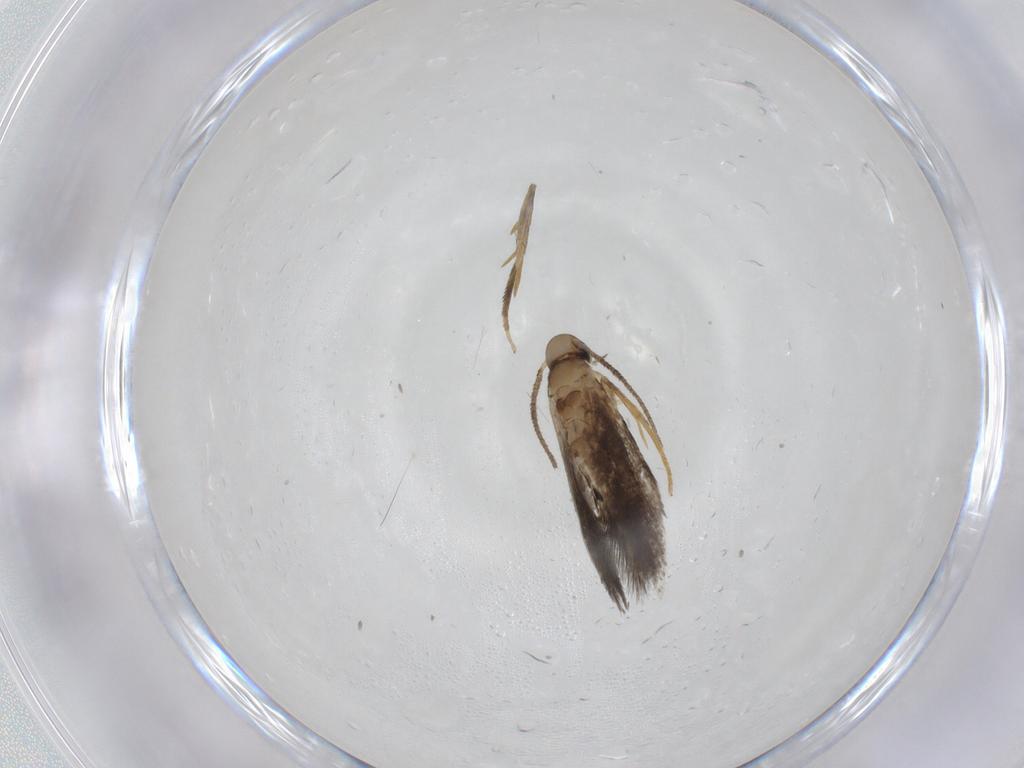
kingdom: Animalia
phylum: Arthropoda
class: Insecta
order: Lepidoptera
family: Heliozelidae
